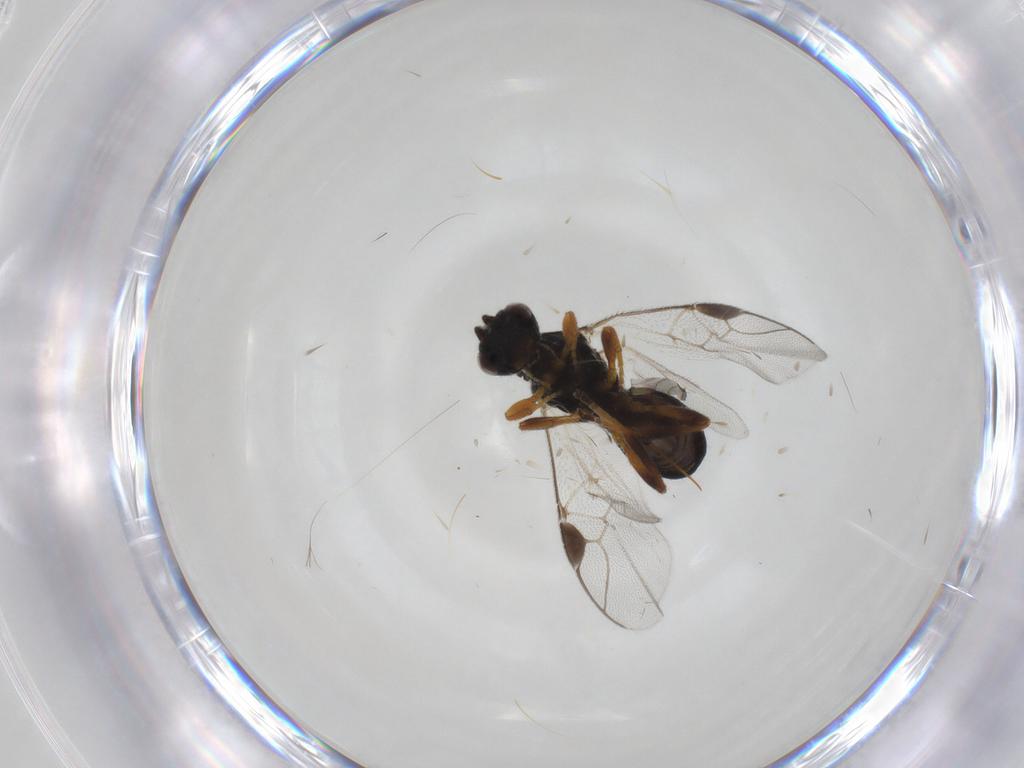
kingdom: Animalia
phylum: Arthropoda
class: Insecta
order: Hymenoptera
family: Braconidae
